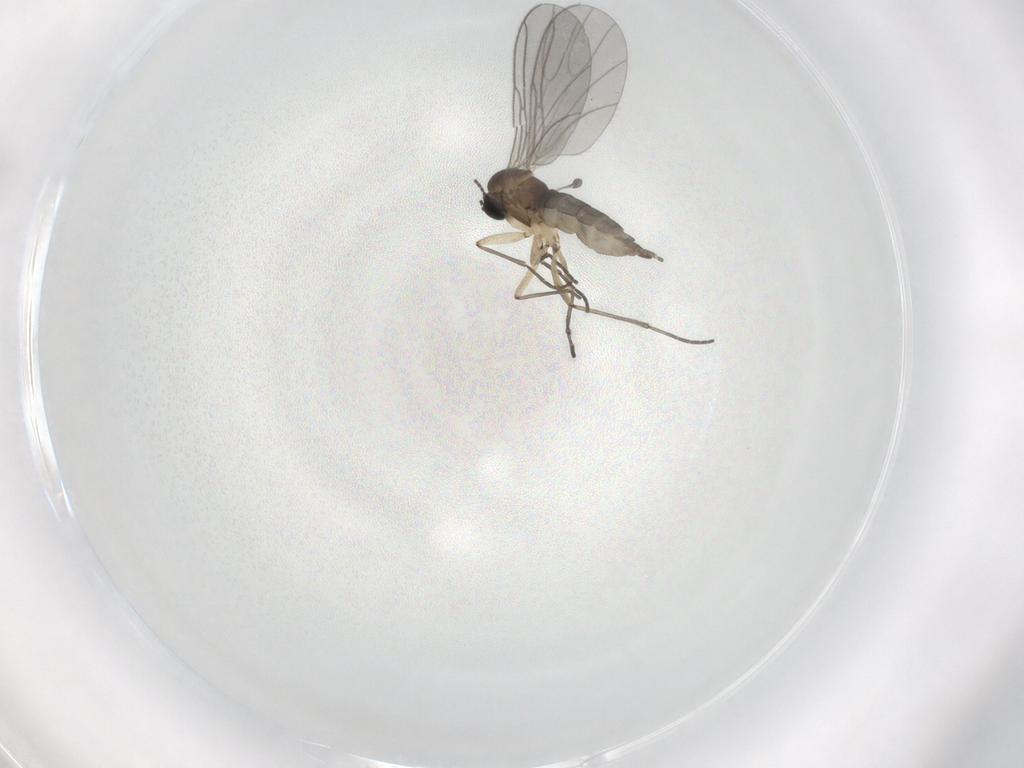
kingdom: Animalia
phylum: Arthropoda
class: Insecta
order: Diptera
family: Sciaridae
